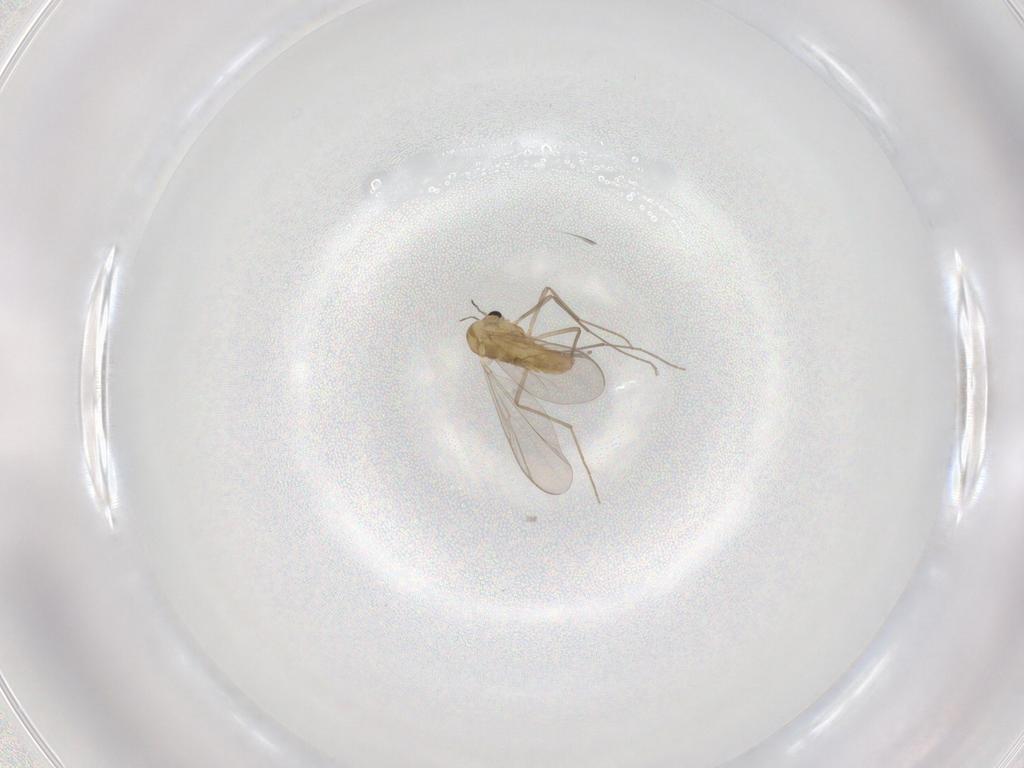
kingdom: Animalia
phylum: Arthropoda
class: Insecta
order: Diptera
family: Chironomidae
